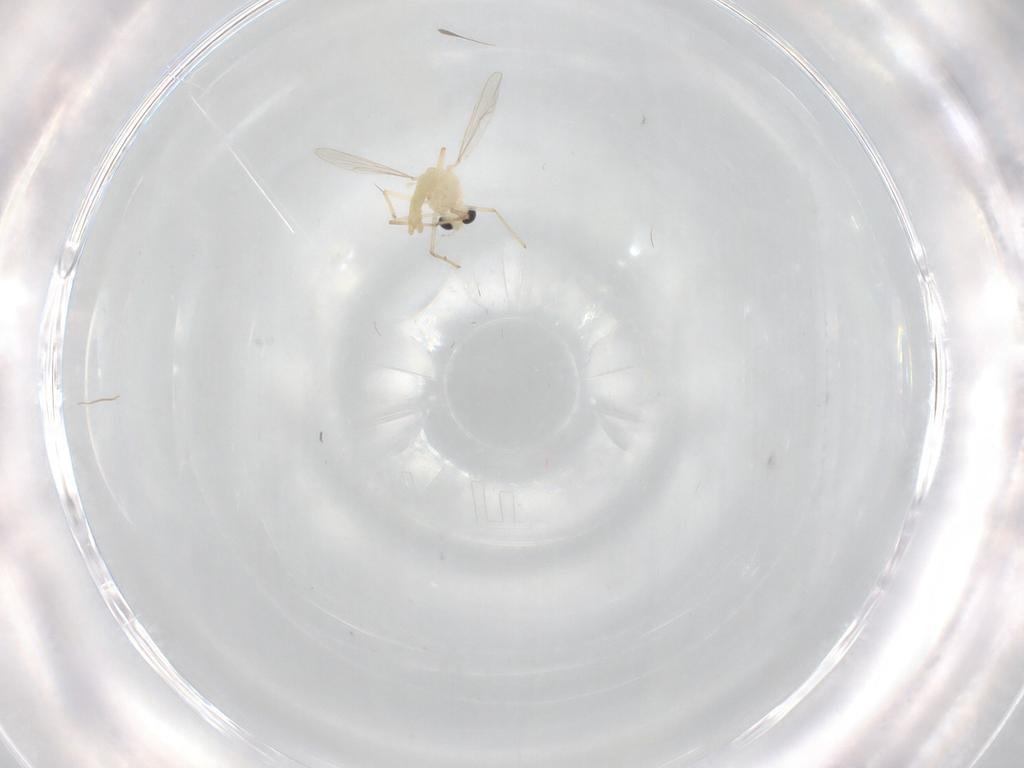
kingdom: Animalia
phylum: Arthropoda
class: Insecta
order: Diptera
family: Chironomidae
